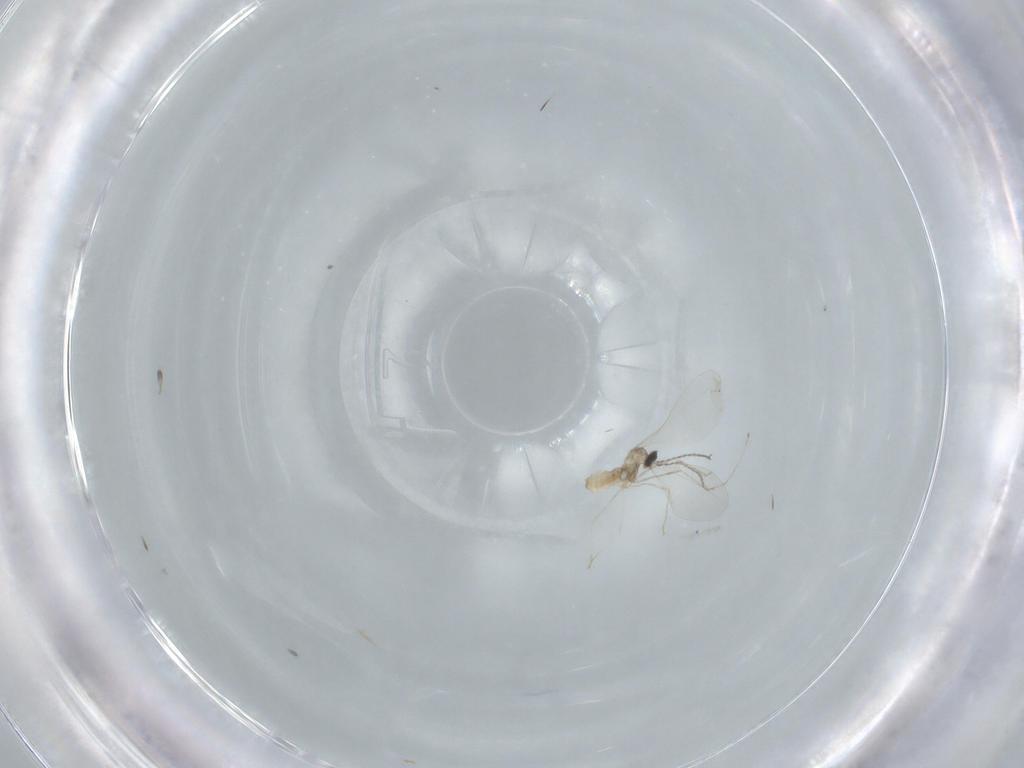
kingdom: Animalia
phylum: Arthropoda
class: Insecta
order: Diptera
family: Cecidomyiidae
